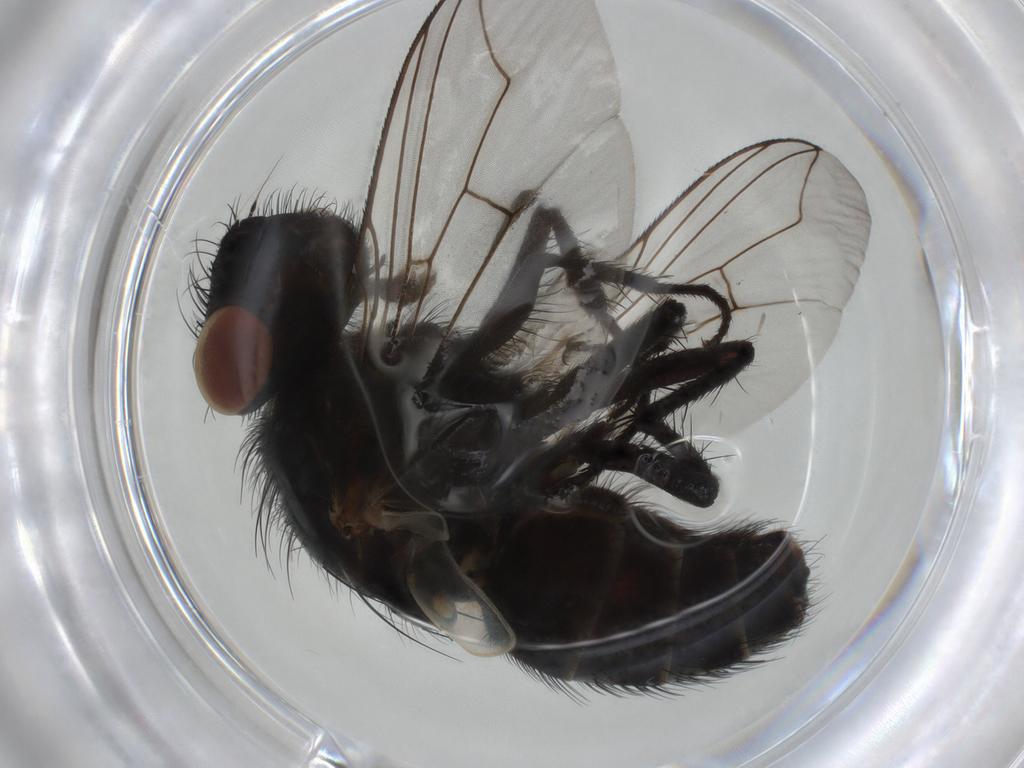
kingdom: Animalia
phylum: Arthropoda
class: Insecta
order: Diptera
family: Sarcophagidae
